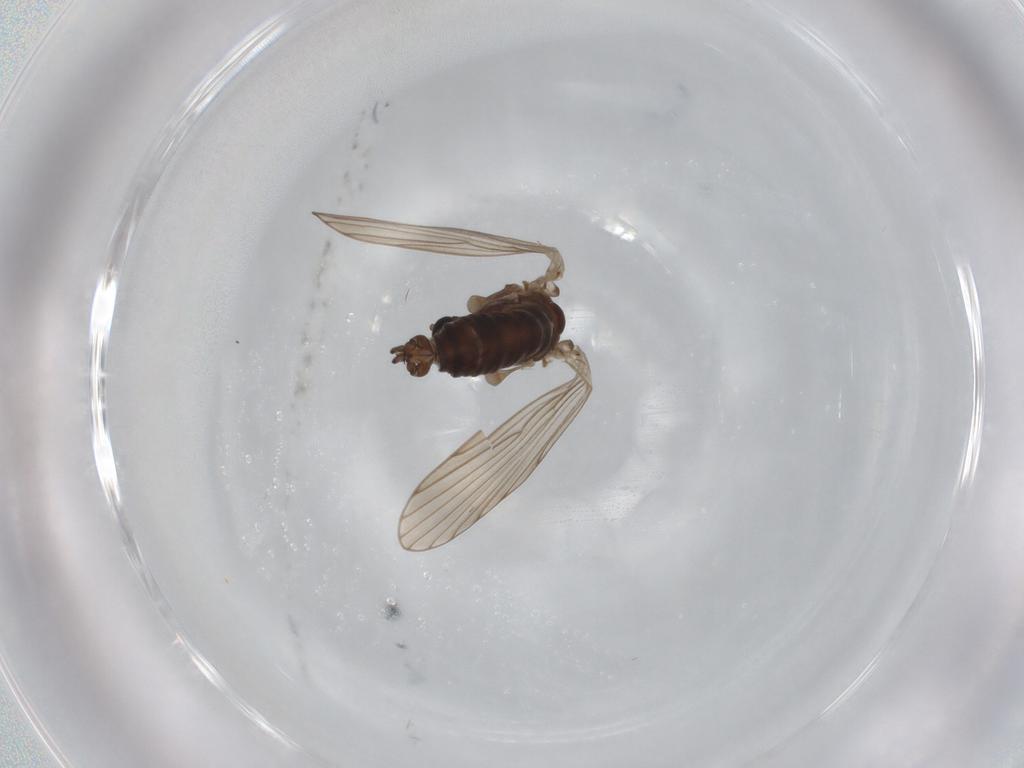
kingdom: Animalia
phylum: Arthropoda
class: Insecta
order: Diptera
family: Psychodidae
